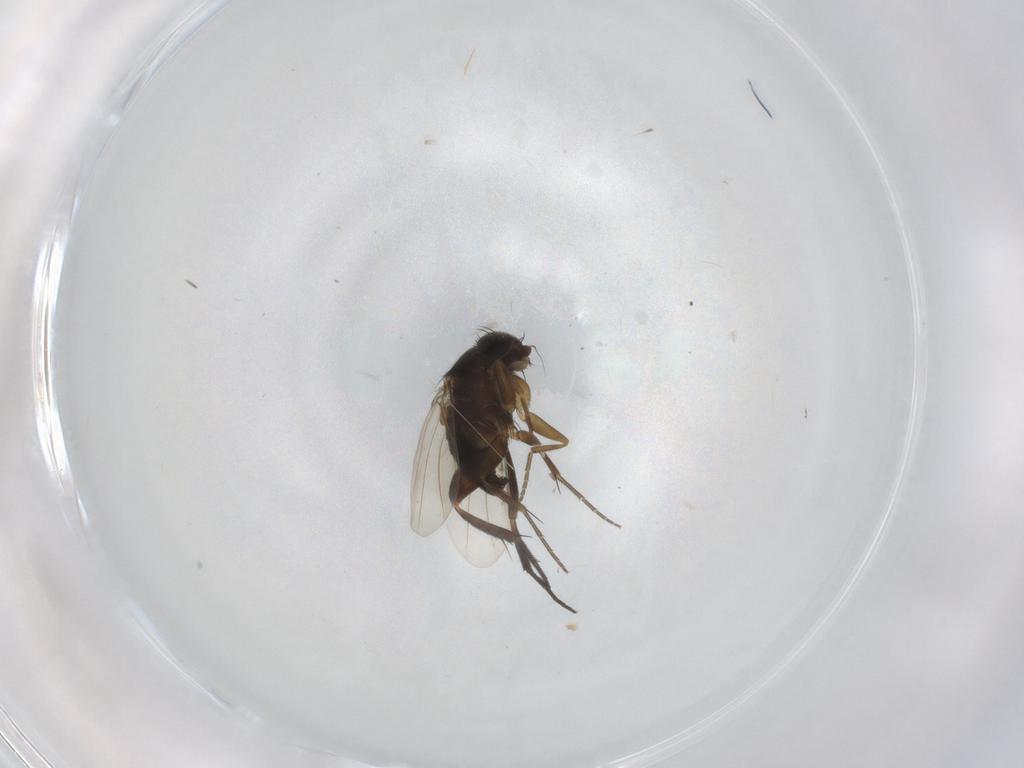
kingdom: Animalia
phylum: Arthropoda
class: Insecta
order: Diptera
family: Phoridae
